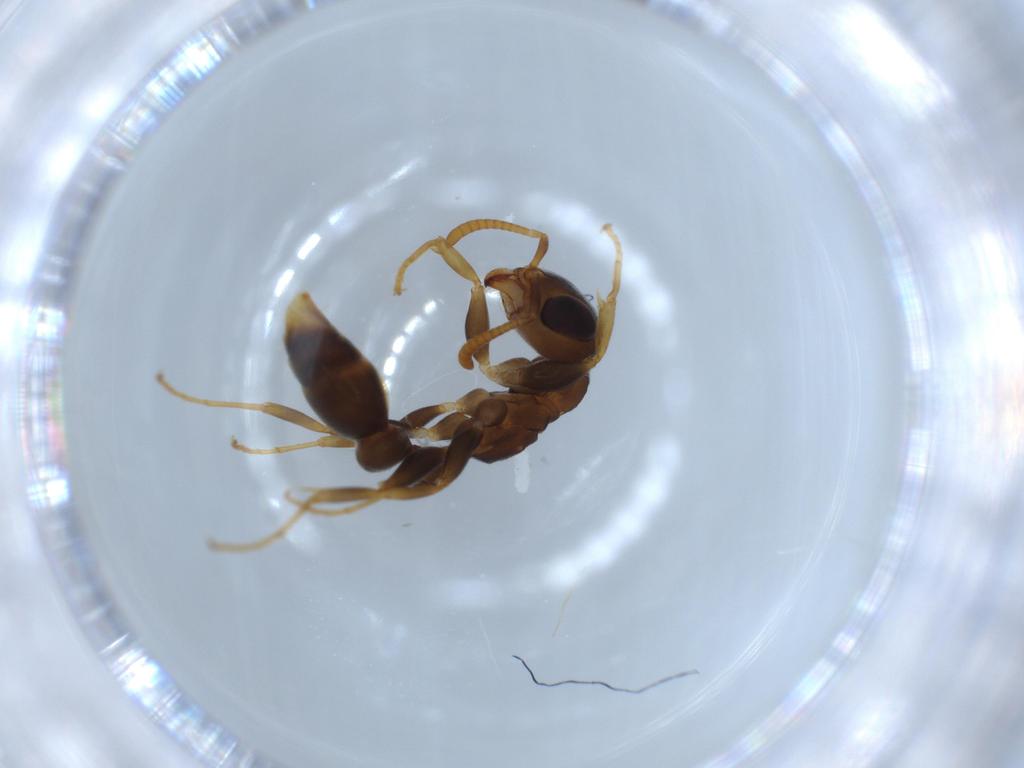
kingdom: Animalia
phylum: Arthropoda
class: Insecta
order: Hymenoptera
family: Formicidae
